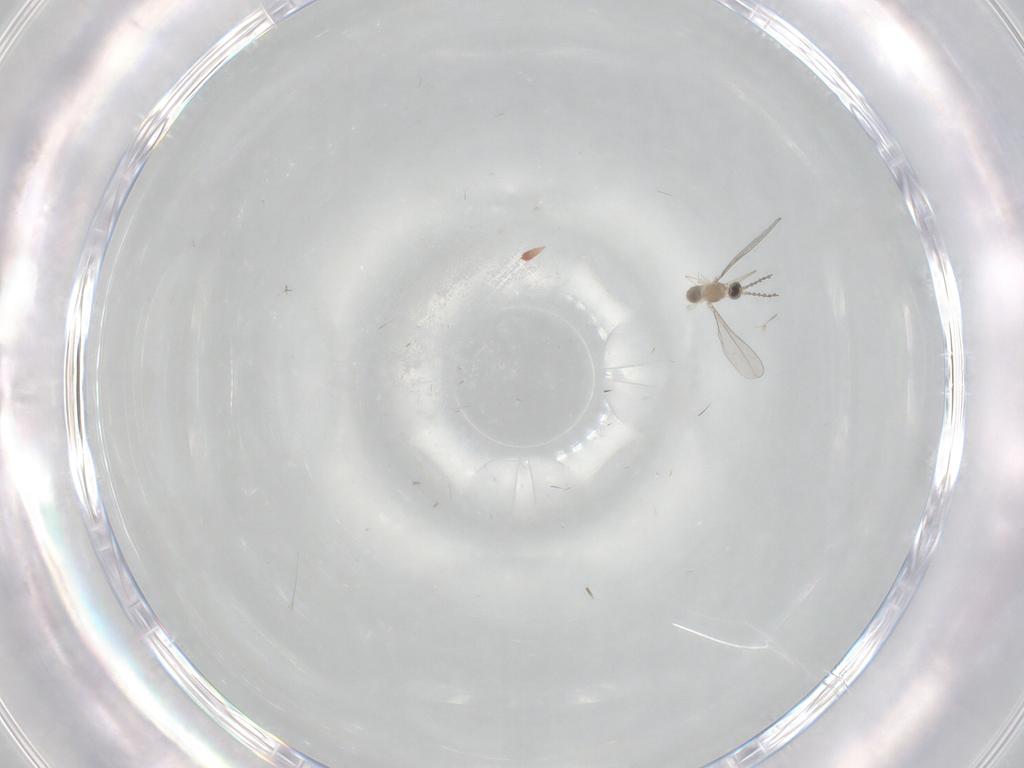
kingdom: Animalia
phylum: Arthropoda
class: Insecta
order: Diptera
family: Cecidomyiidae
